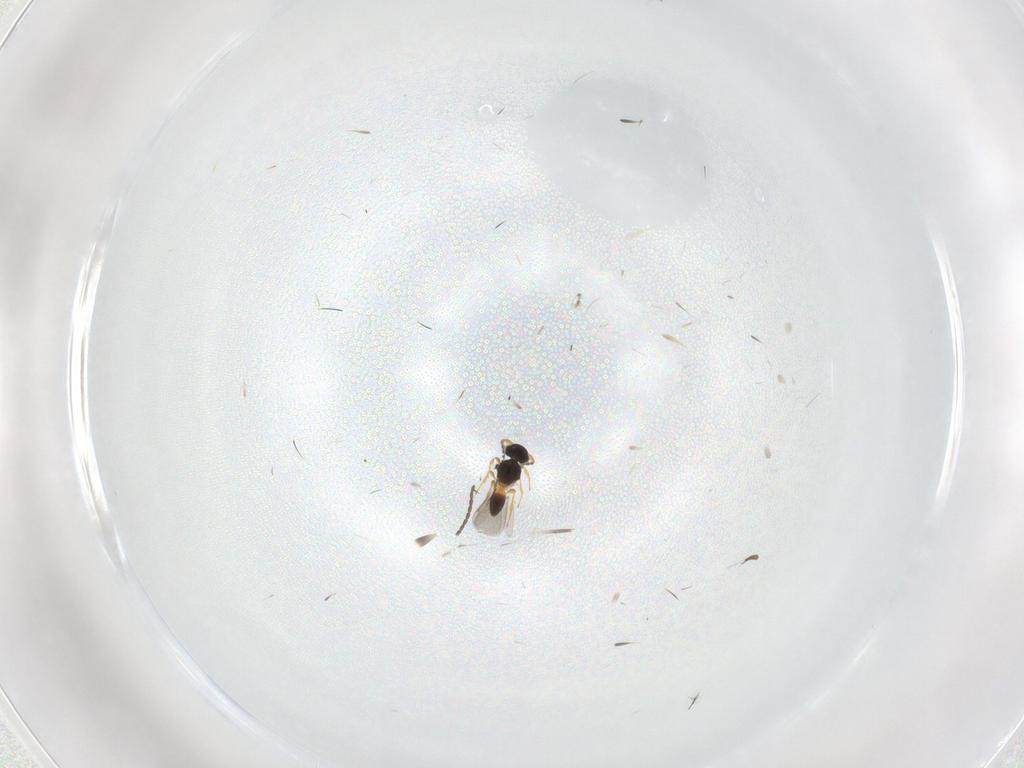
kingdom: Animalia
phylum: Arthropoda
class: Insecta
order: Hymenoptera
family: Platygastridae
